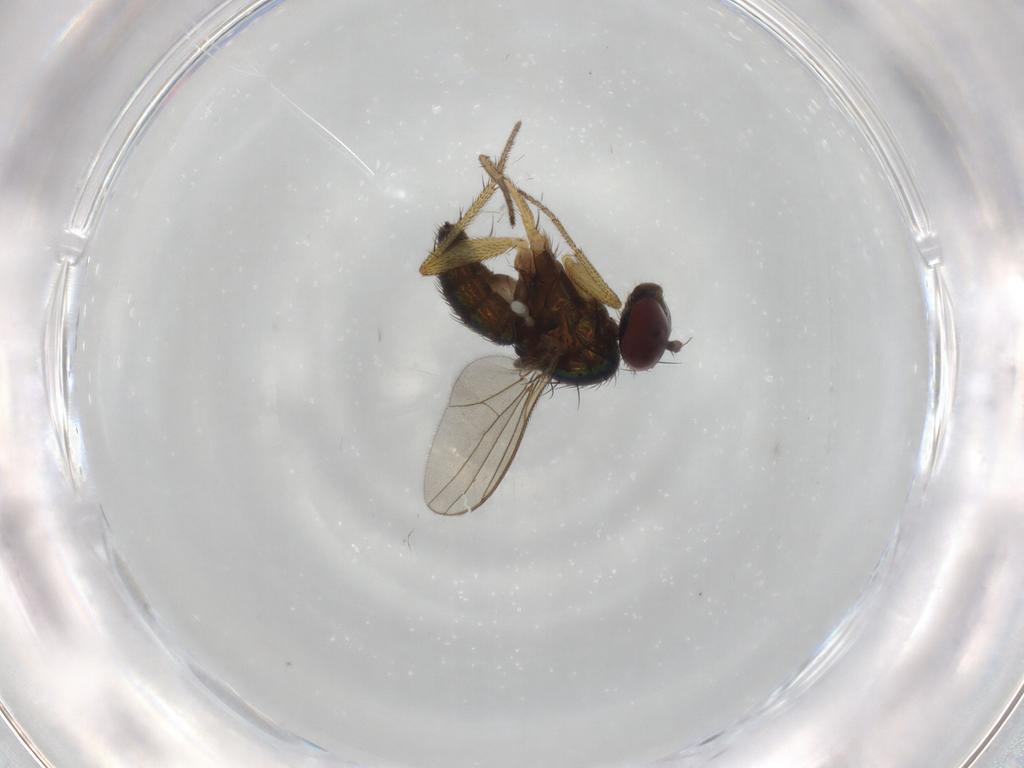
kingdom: Animalia
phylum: Arthropoda
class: Insecta
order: Diptera
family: Dolichopodidae
